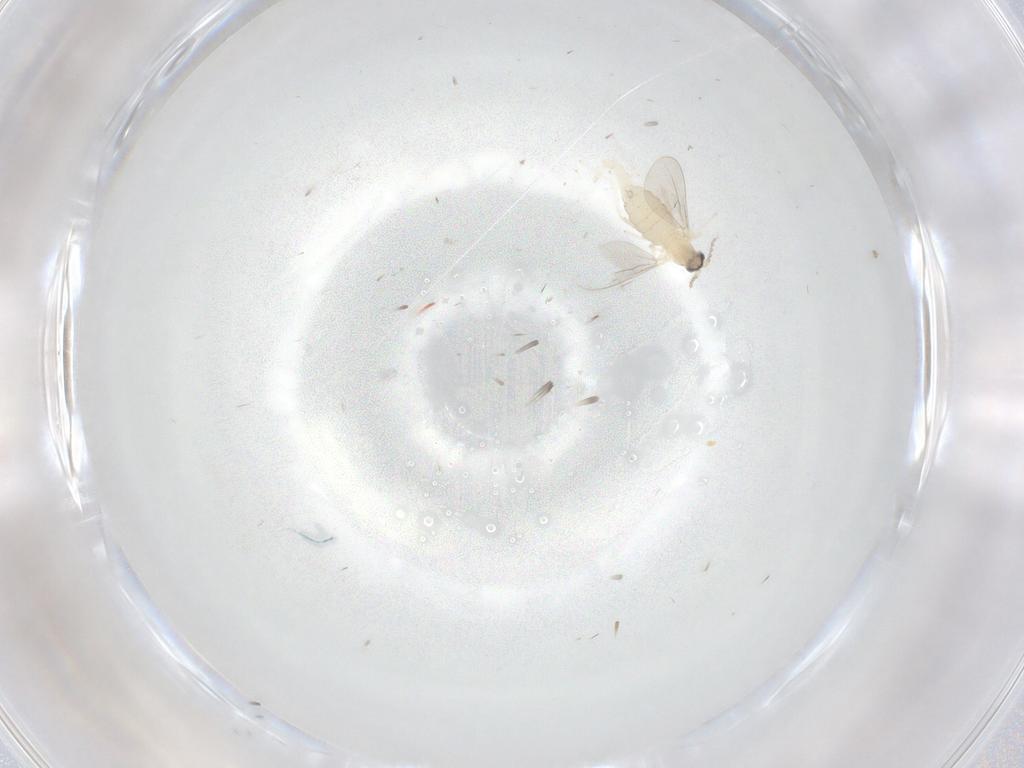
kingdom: Animalia
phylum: Arthropoda
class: Insecta
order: Diptera
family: Cecidomyiidae
